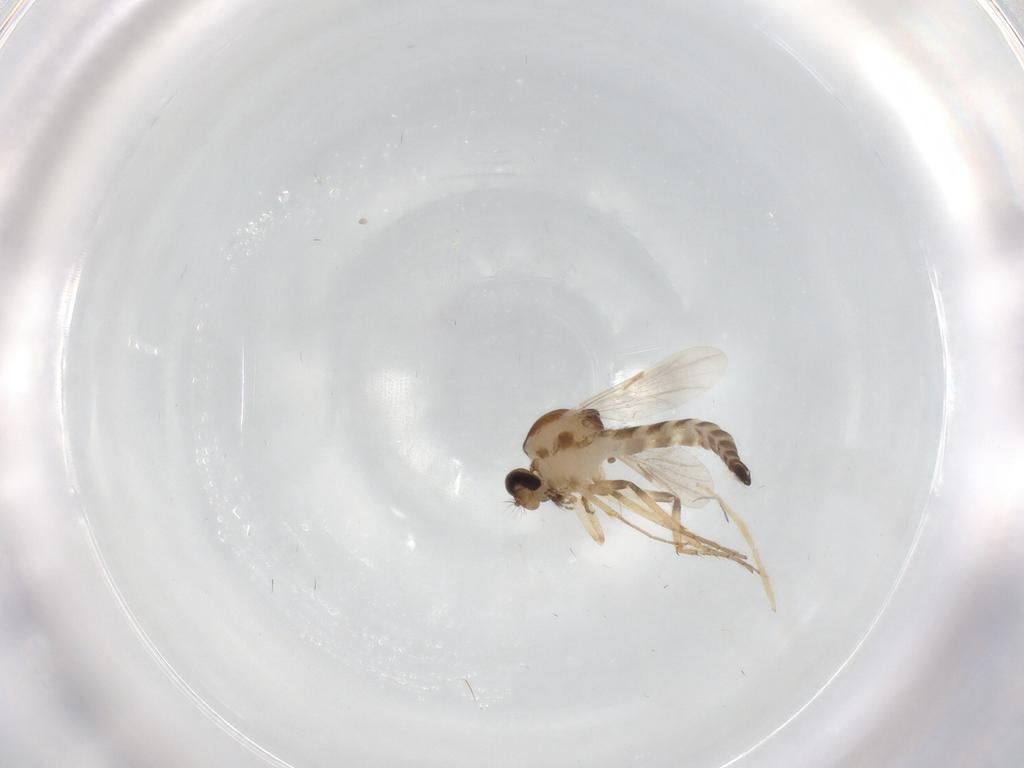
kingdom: Animalia
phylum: Arthropoda
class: Insecta
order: Diptera
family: Ceratopogonidae
